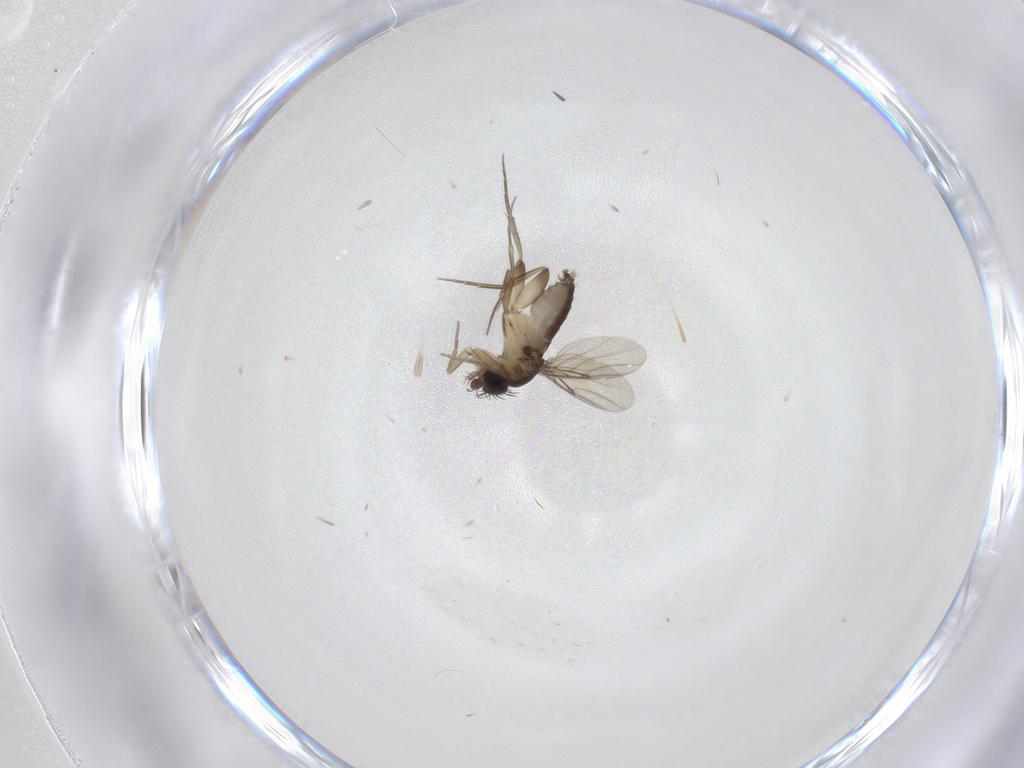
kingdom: Animalia
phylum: Arthropoda
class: Insecta
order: Diptera
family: Phoridae
